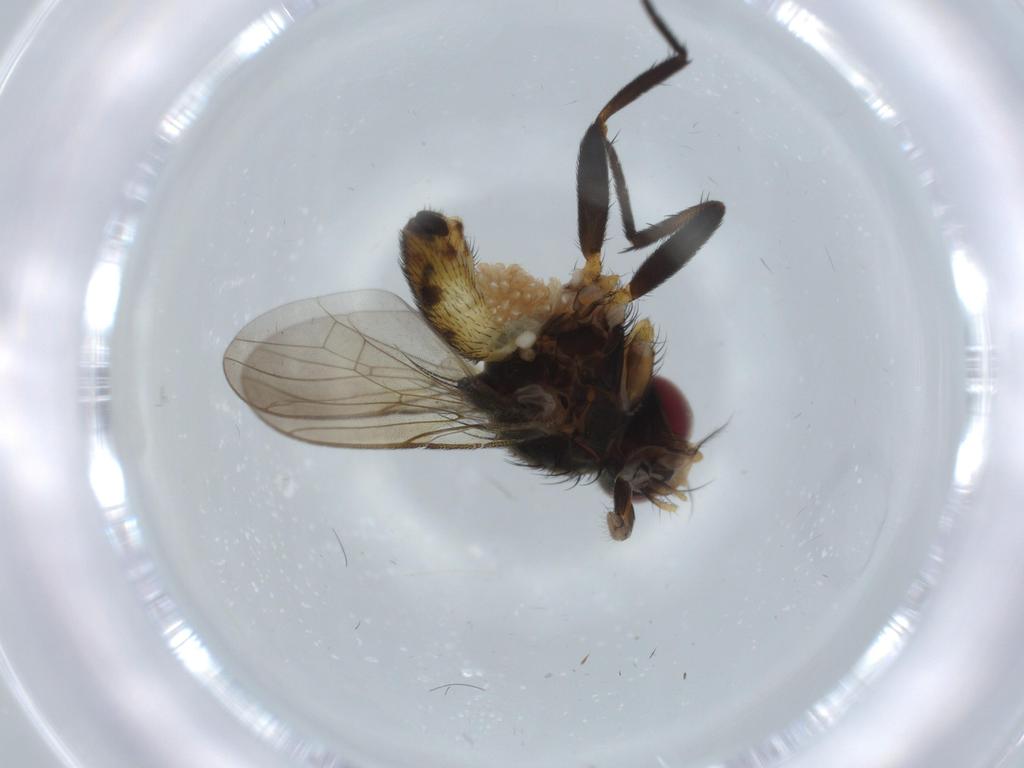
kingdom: Animalia
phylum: Arthropoda
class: Insecta
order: Diptera
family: Sciaridae
